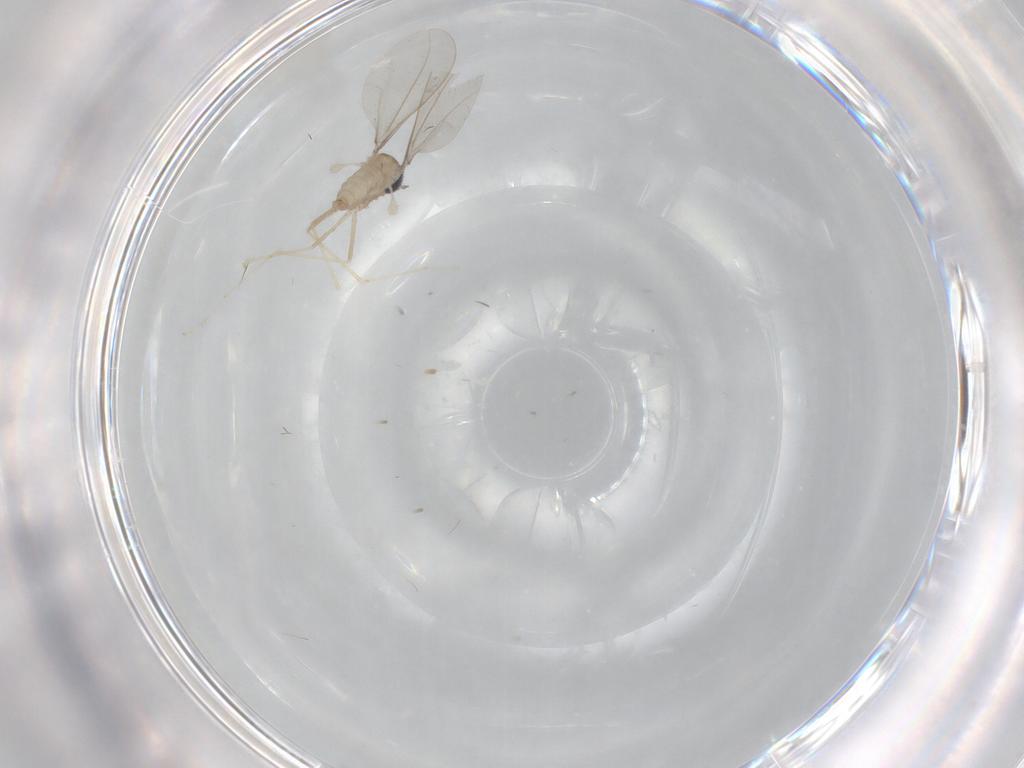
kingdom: Animalia
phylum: Arthropoda
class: Insecta
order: Diptera
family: Cecidomyiidae
